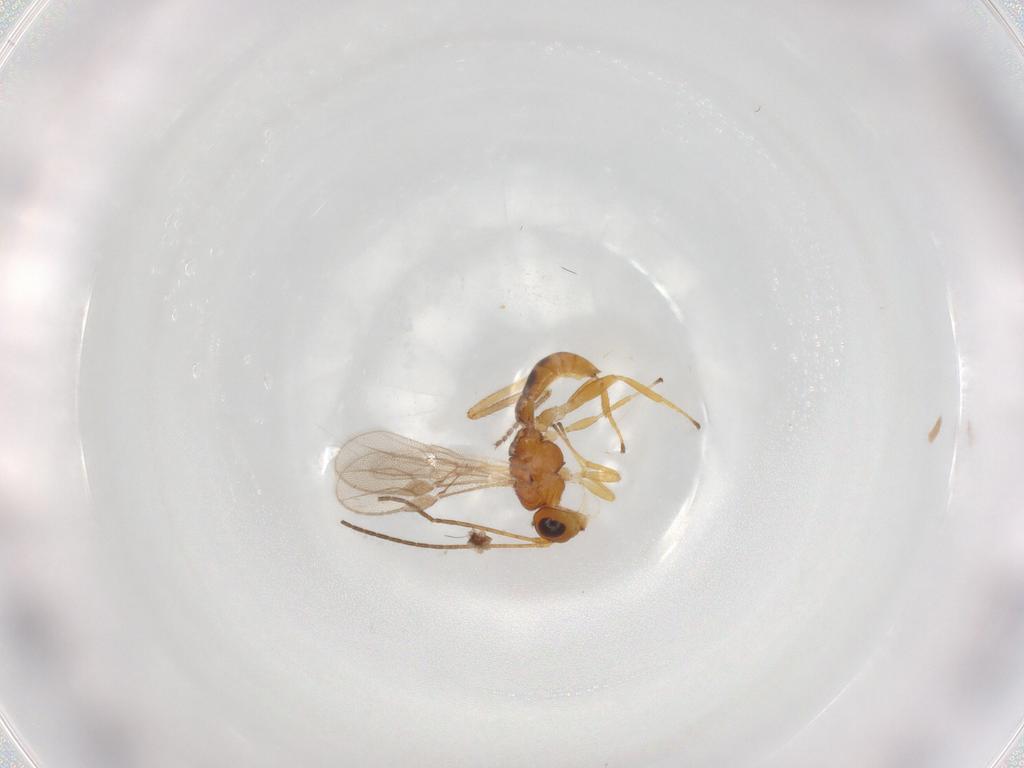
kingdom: Animalia
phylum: Arthropoda
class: Insecta
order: Hymenoptera
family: Braconidae
